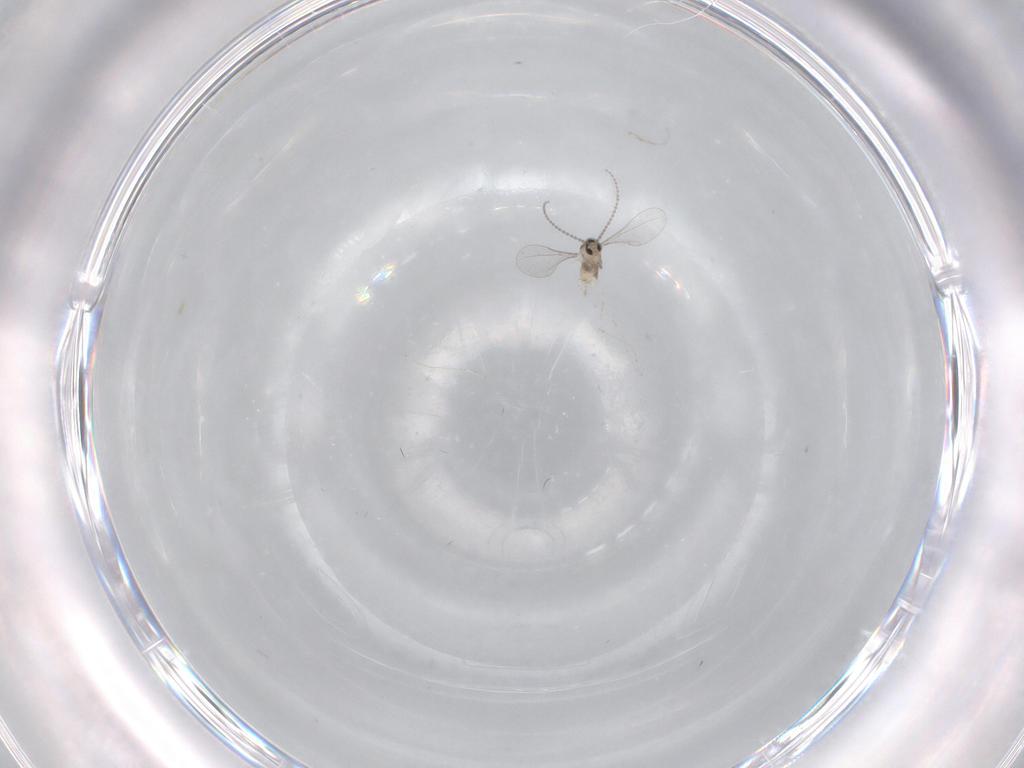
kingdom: Animalia
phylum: Arthropoda
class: Insecta
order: Diptera
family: Cecidomyiidae
